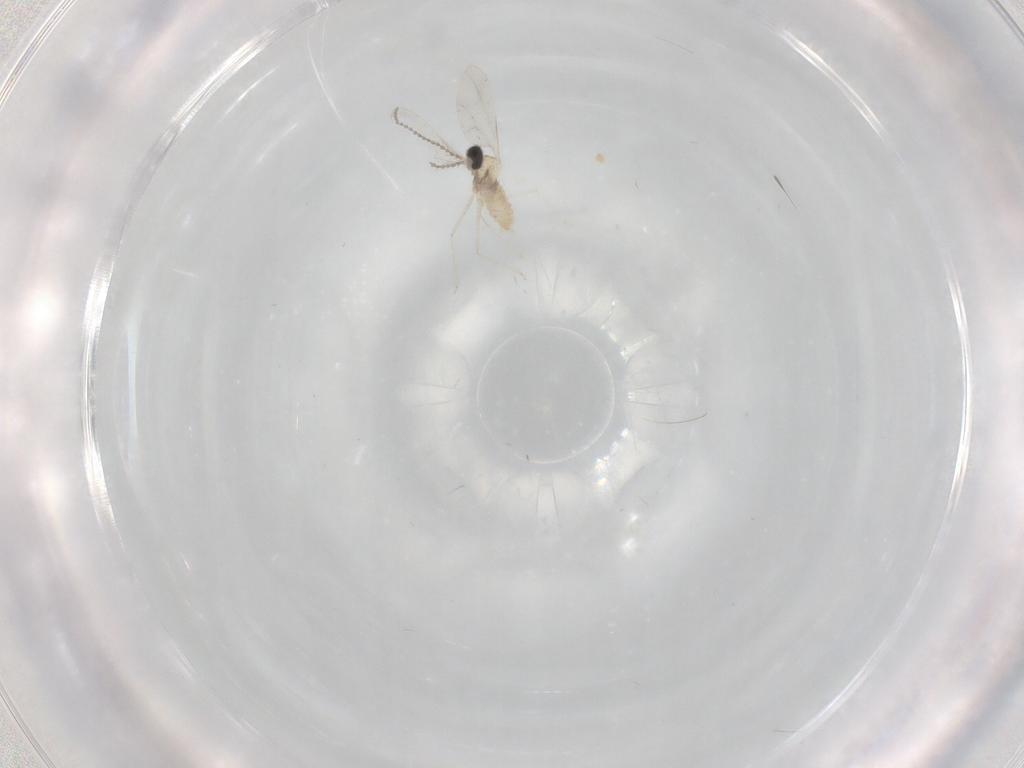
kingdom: Animalia
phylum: Arthropoda
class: Insecta
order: Diptera
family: Cecidomyiidae
